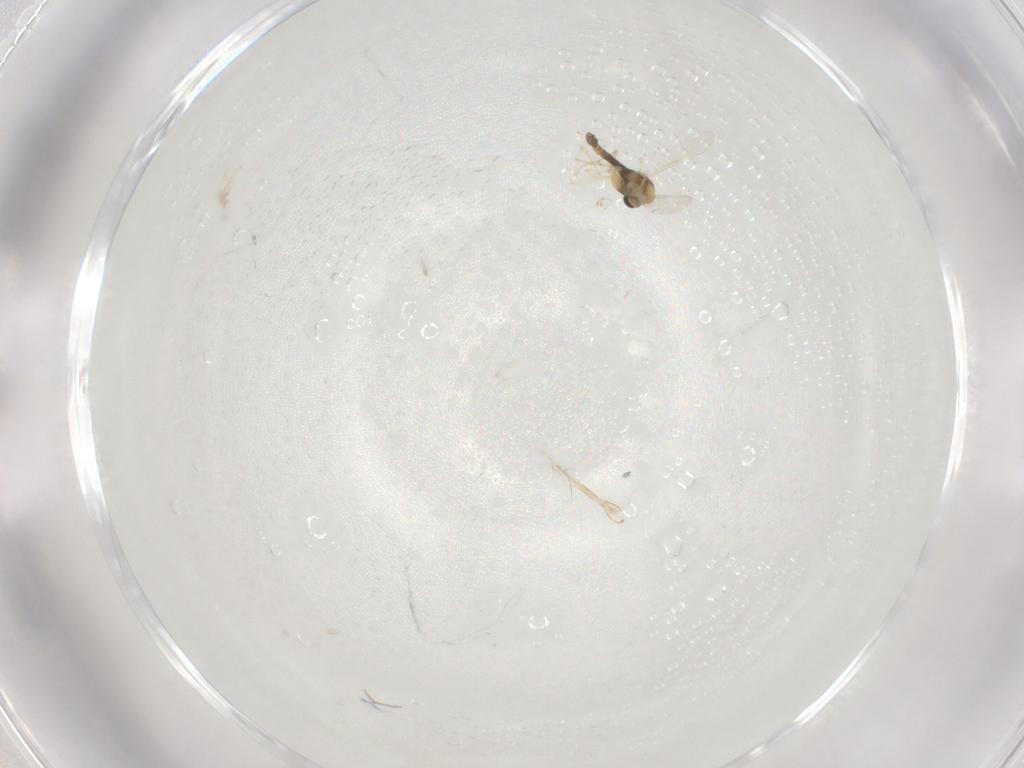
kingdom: Animalia
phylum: Arthropoda
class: Insecta
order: Diptera
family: Chironomidae
